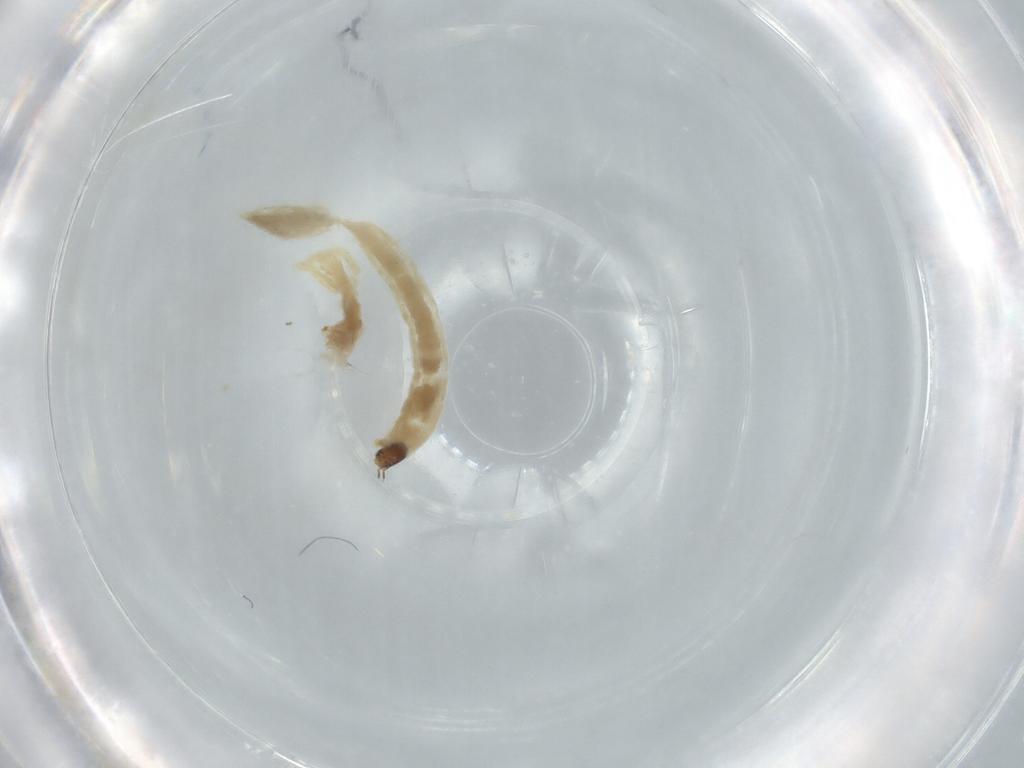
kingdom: Animalia
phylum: Arthropoda
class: Insecta
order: Diptera
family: Chironomidae
